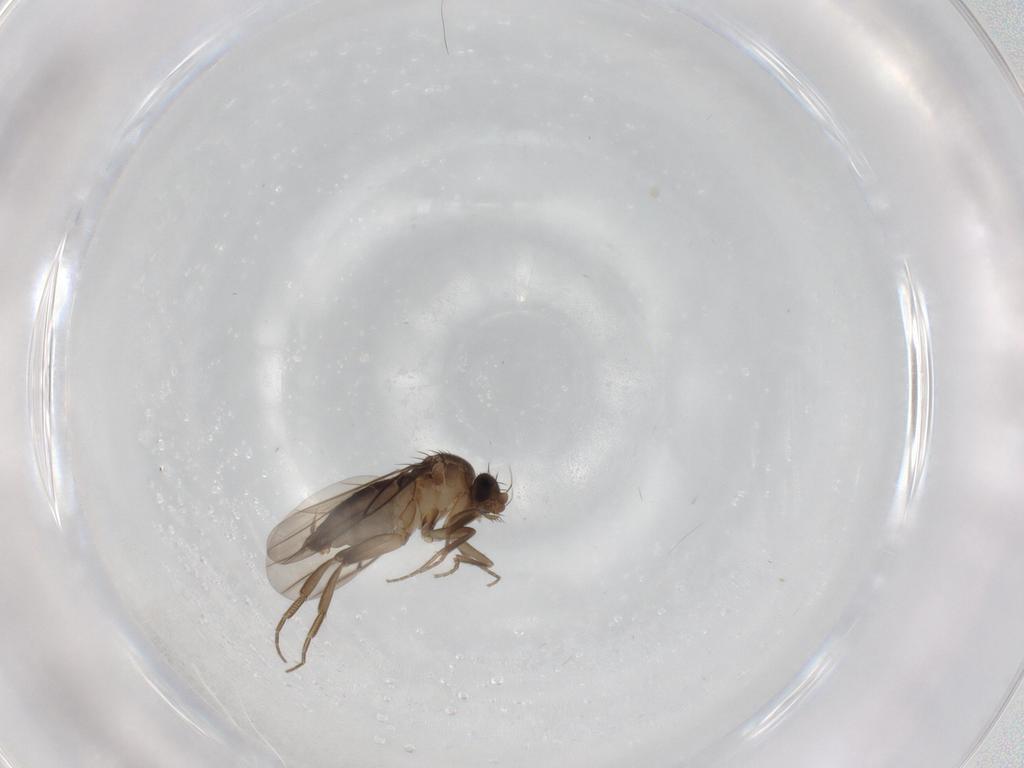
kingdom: Animalia
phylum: Arthropoda
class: Insecta
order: Diptera
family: Phoridae
